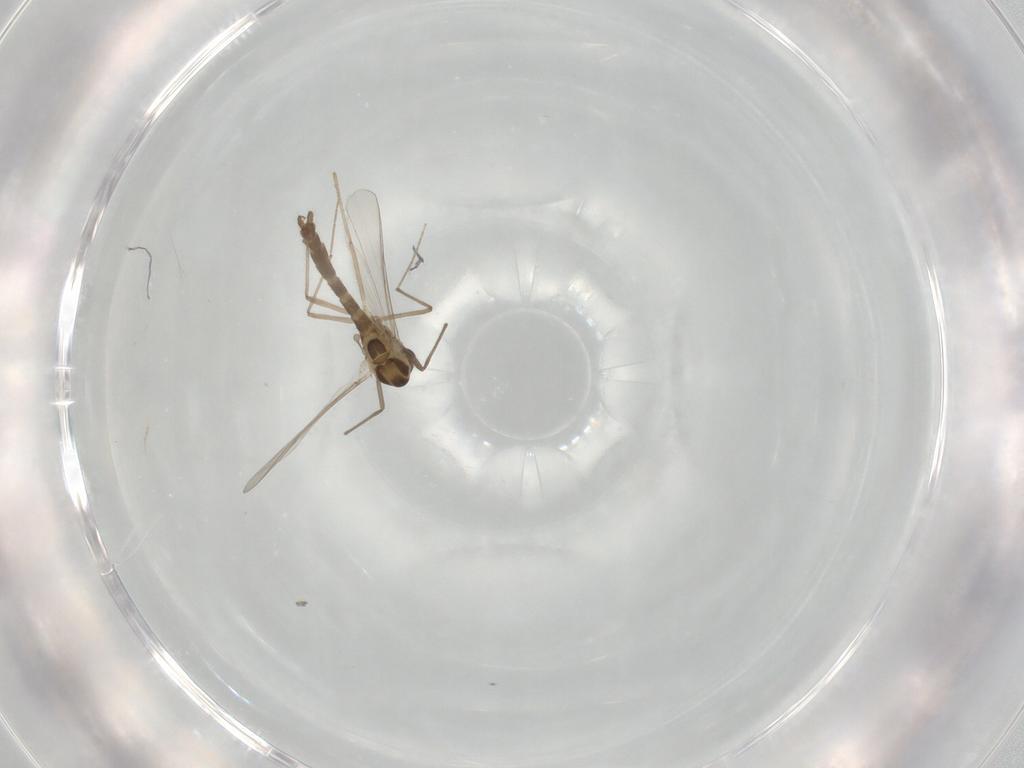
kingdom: Animalia
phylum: Arthropoda
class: Insecta
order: Diptera
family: Chironomidae
